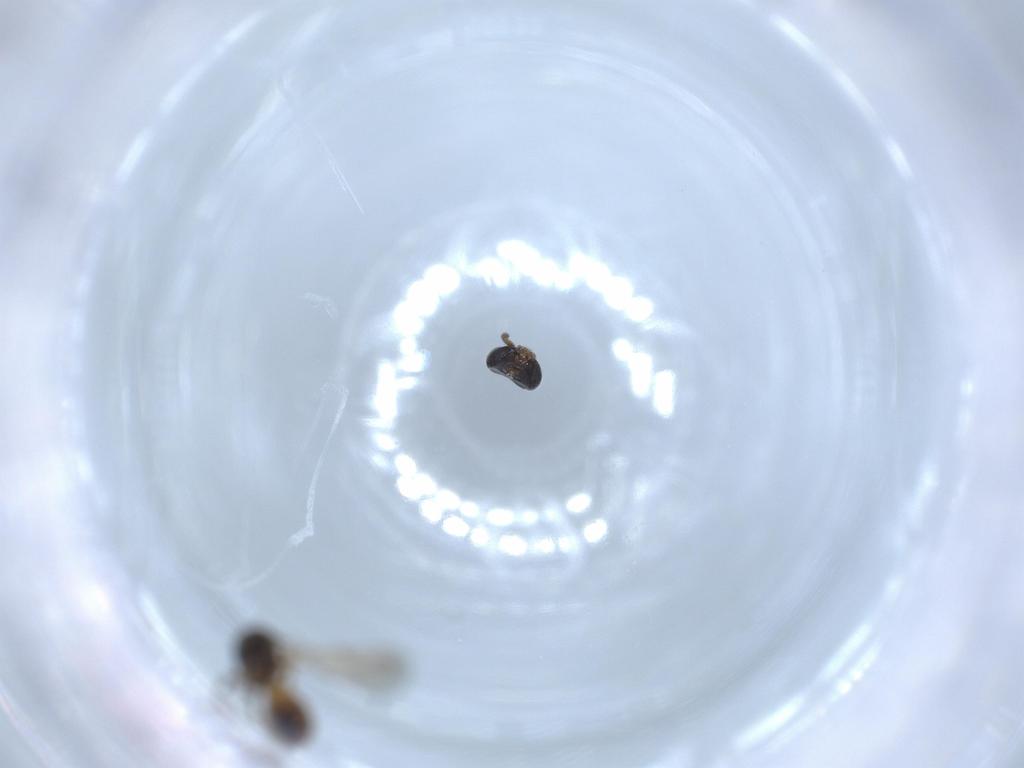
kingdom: Animalia
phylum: Arthropoda
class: Insecta
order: Hymenoptera
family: Scelionidae
